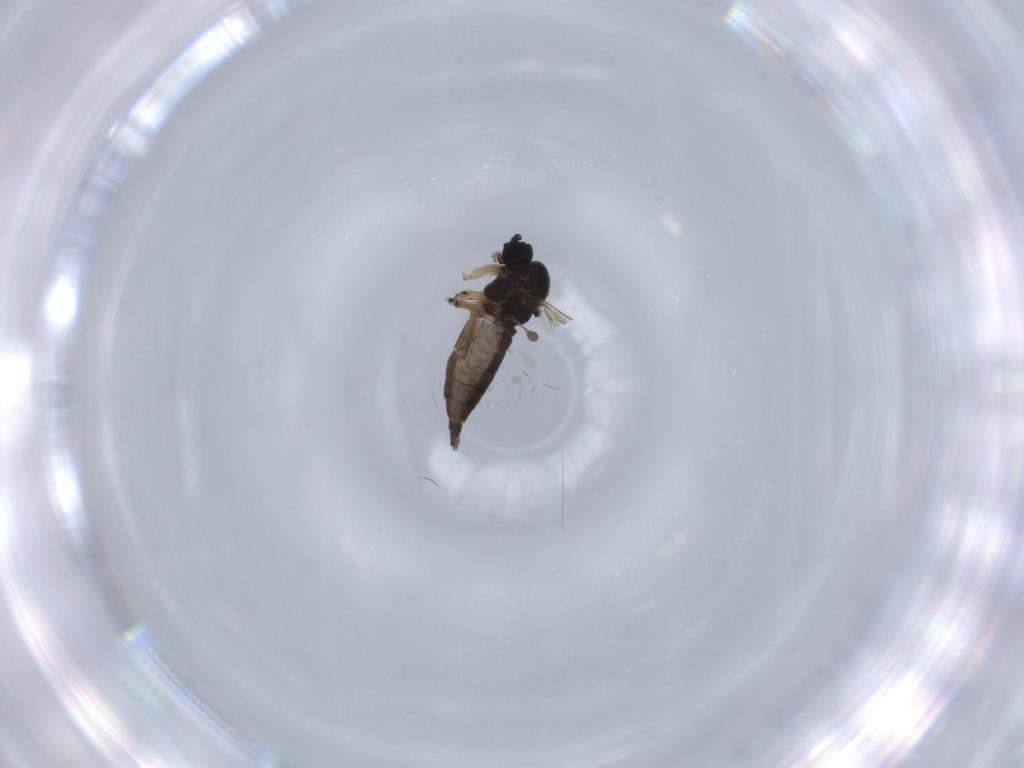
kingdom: Animalia
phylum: Arthropoda
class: Insecta
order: Diptera
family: Sciaridae
